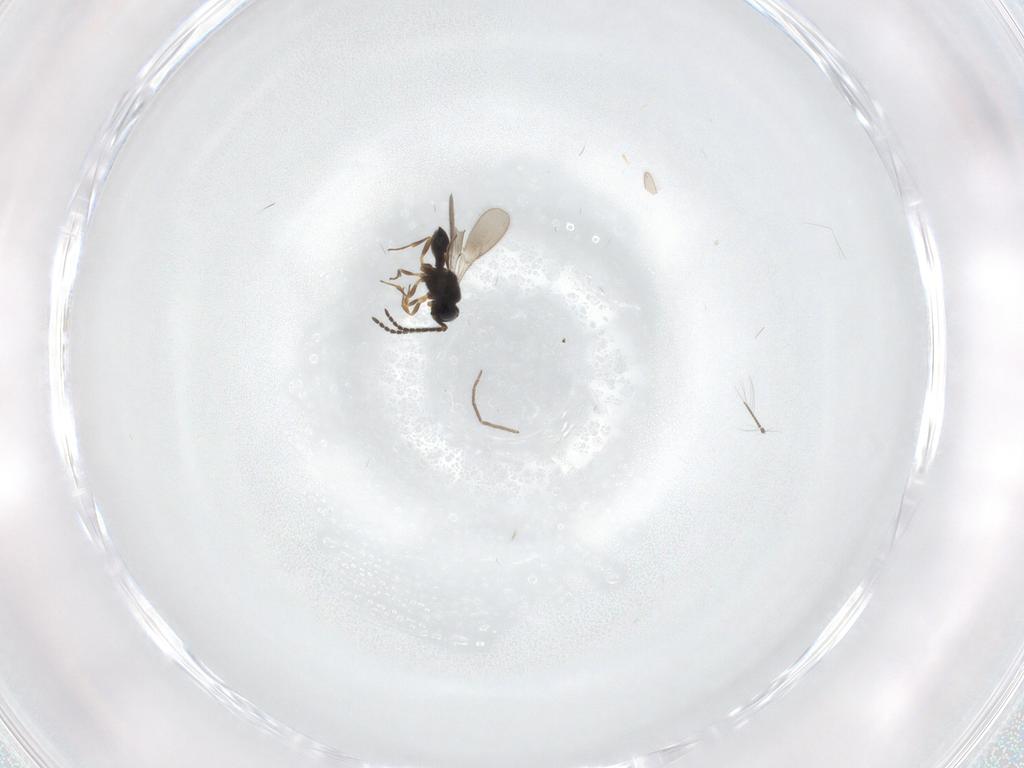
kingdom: Animalia
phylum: Arthropoda
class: Insecta
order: Hymenoptera
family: Scelionidae
